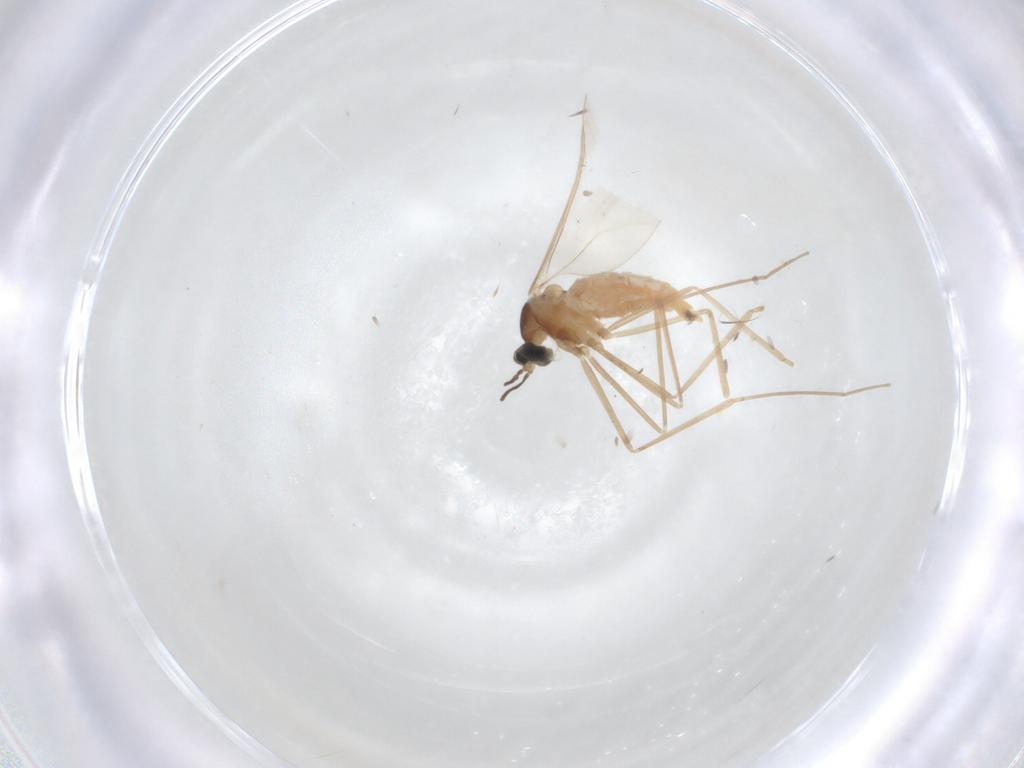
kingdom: Animalia
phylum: Arthropoda
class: Insecta
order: Diptera
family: Cecidomyiidae
